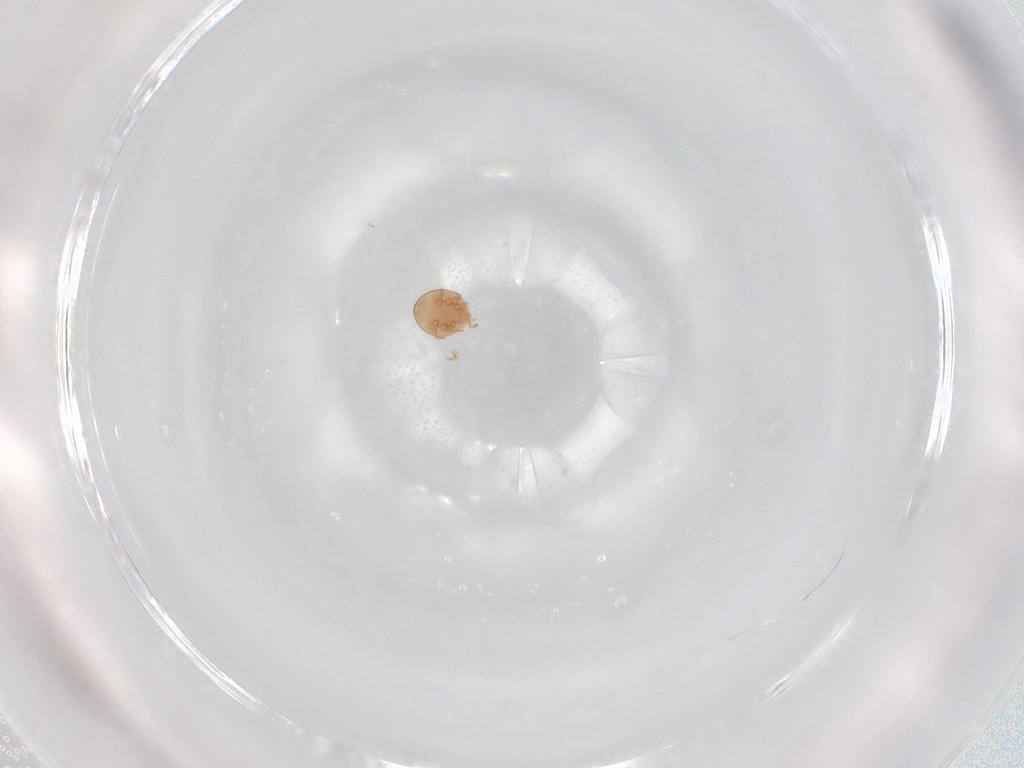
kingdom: Animalia
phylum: Arthropoda
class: Arachnida
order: Mesostigmata
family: Trematuridae
